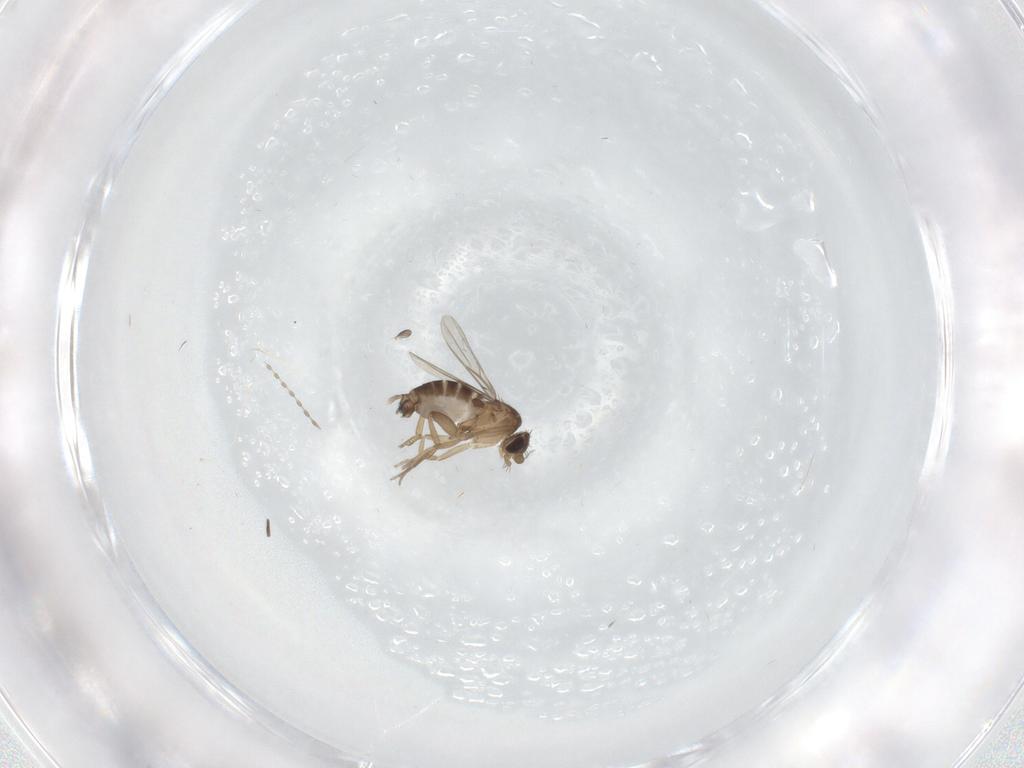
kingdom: Animalia
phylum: Arthropoda
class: Insecta
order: Diptera
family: Phoridae
